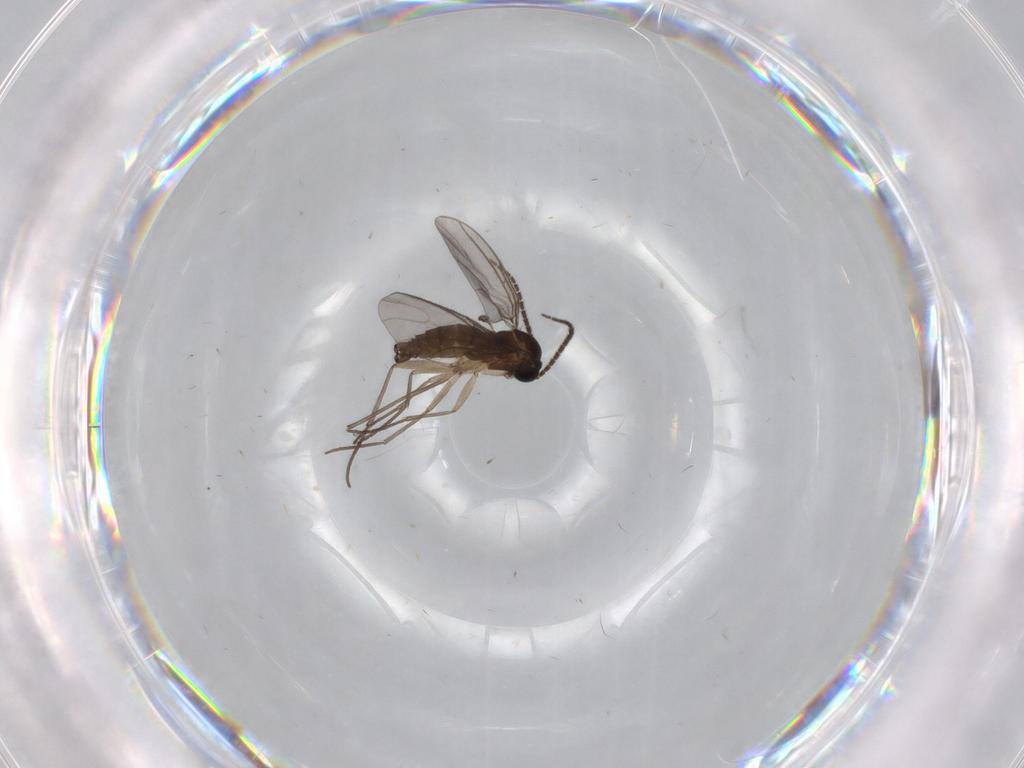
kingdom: Animalia
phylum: Arthropoda
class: Insecta
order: Diptera
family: Sciaridae
